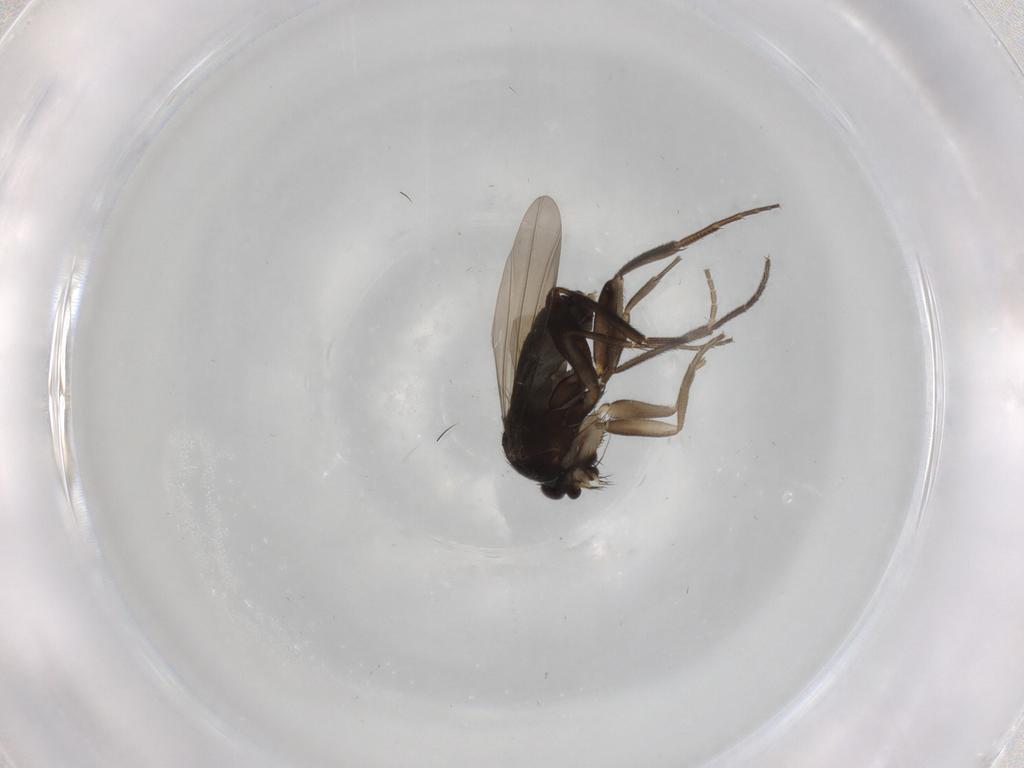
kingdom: Animalia
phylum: Arthropoda
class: Insecta
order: Diptera
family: Phoridae
